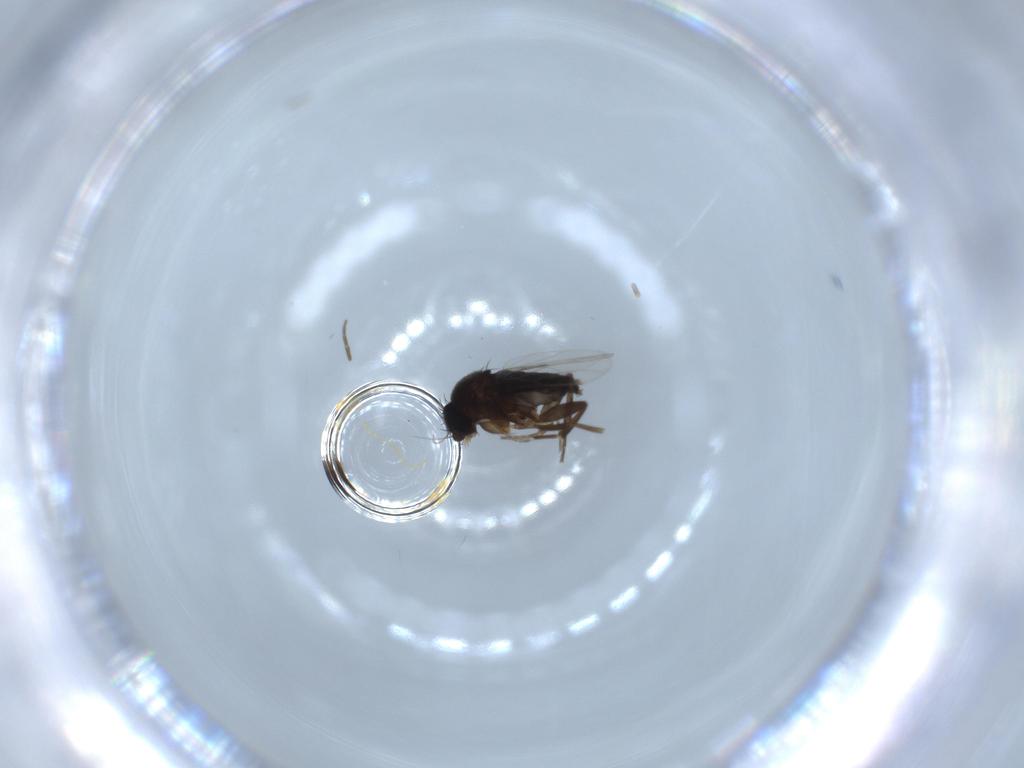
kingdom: Animalia
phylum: Arthropoda
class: Insecta
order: Diptera
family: Phoridae
